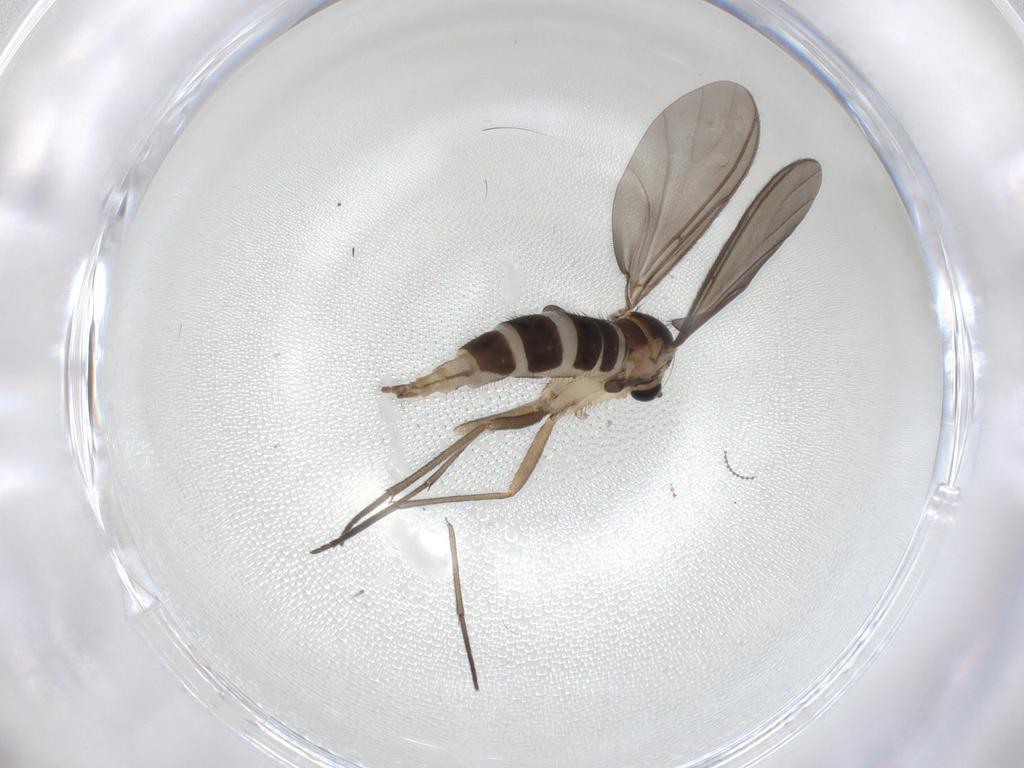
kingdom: Animalia
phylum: Arthropoda
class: Insecta
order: Diptera
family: Sciaridae
